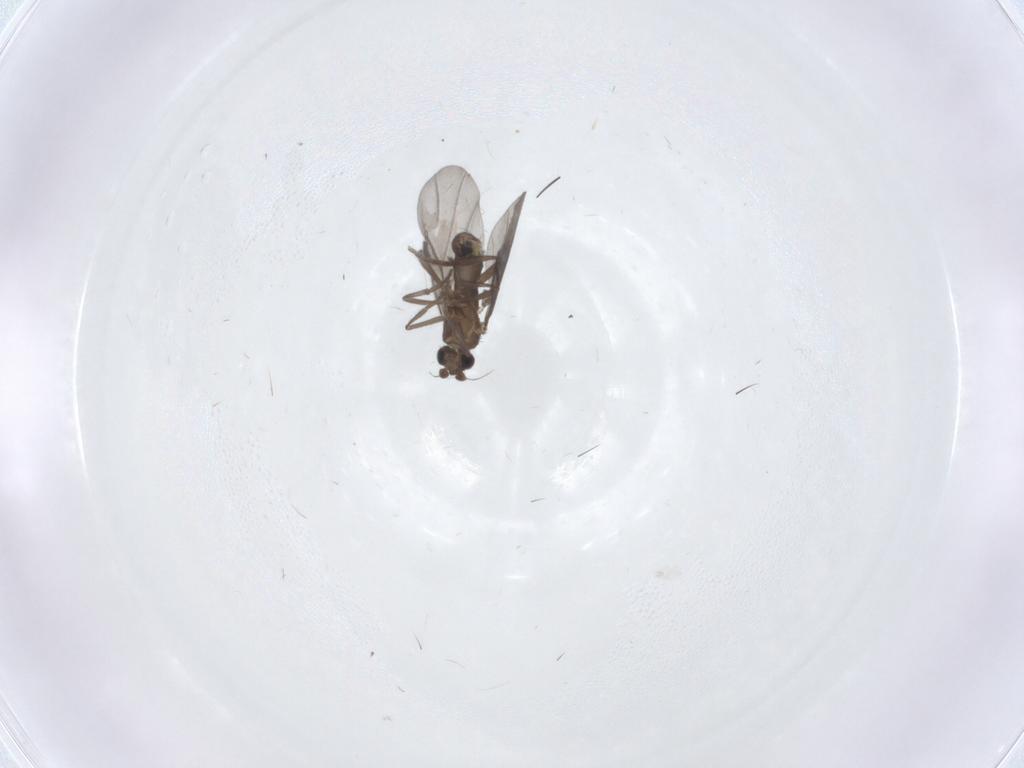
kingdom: Animalia
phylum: Arthropoda
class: Insecta
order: Diptera
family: Phoridae
